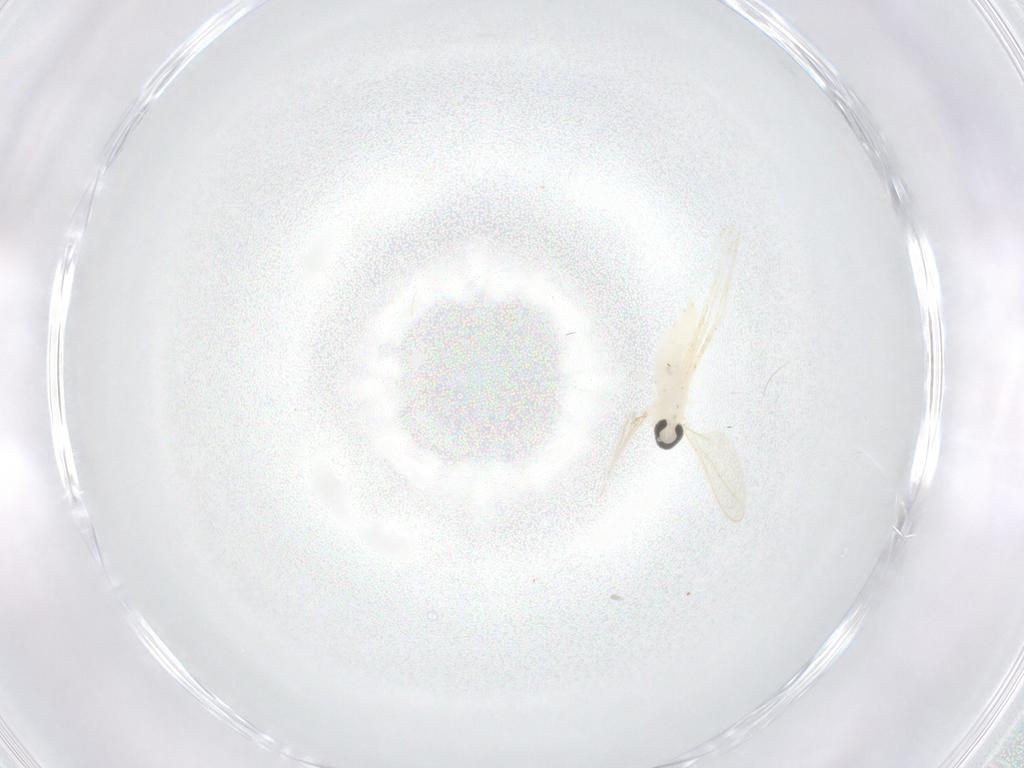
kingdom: Animalia
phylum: Arthropoda
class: Insecta
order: Diptera
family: Cecidomyiidae
